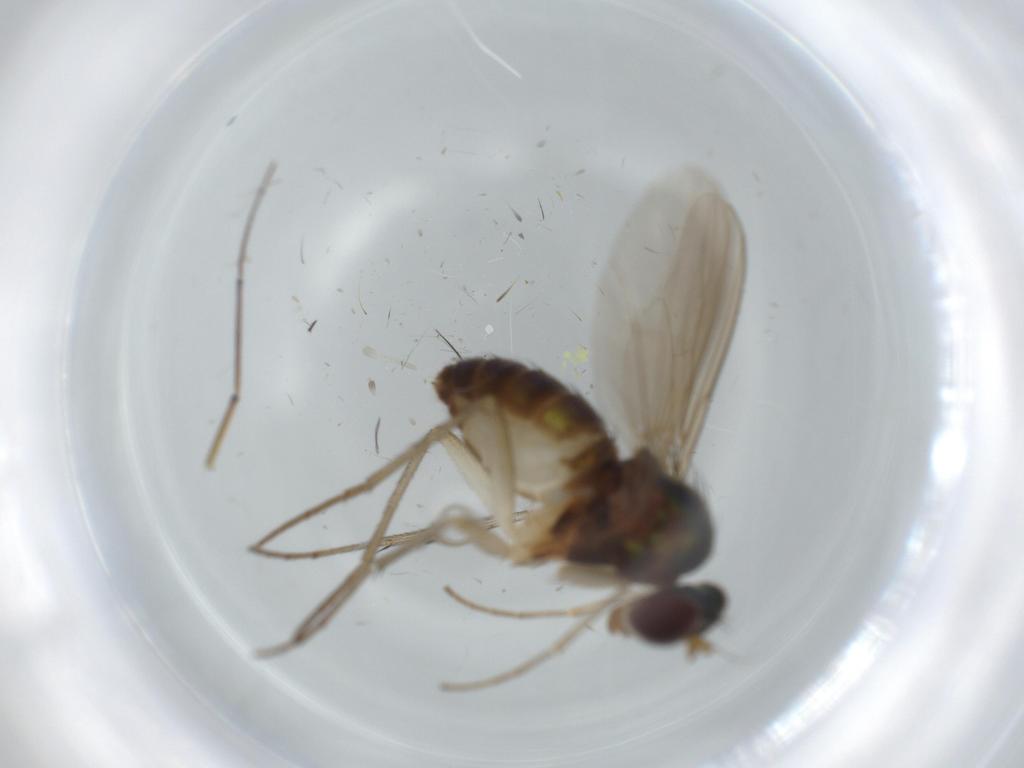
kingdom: Animalia
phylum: Arthropoda
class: Insecta
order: Diptera
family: Dolichopodidae
